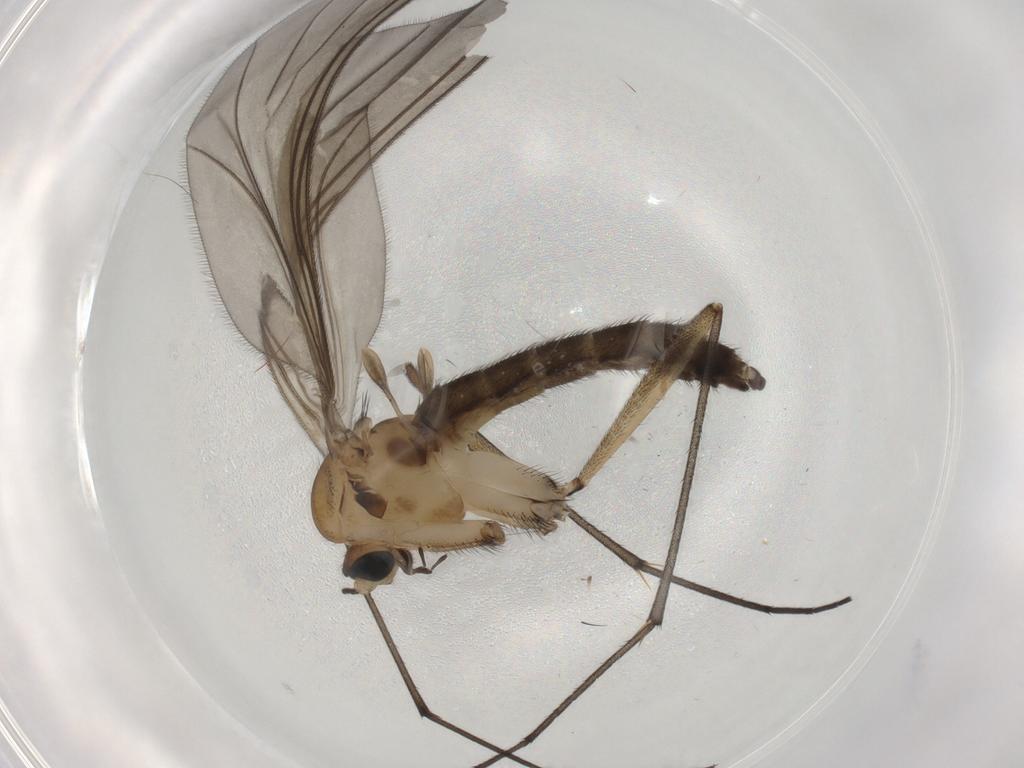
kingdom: Animalia
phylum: Arthropoda
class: Insecta
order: Diptera
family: Sciaridae
